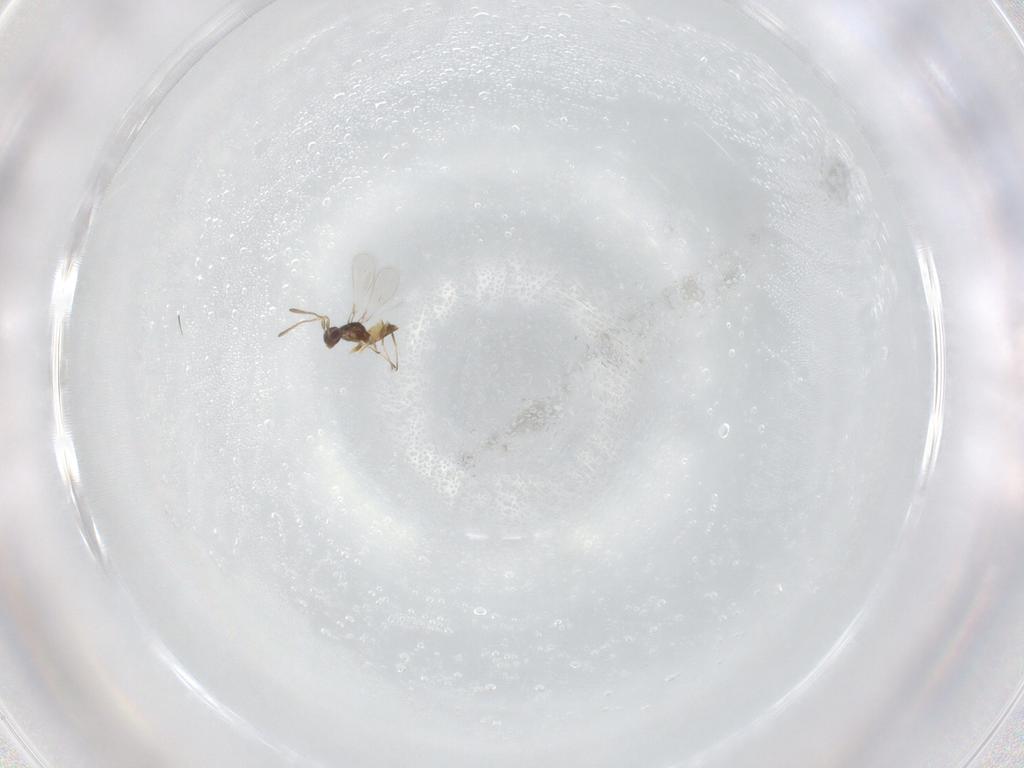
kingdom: Animalia
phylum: Arthropoda
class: Insecta
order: Hymenoptera
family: Mymaridae
